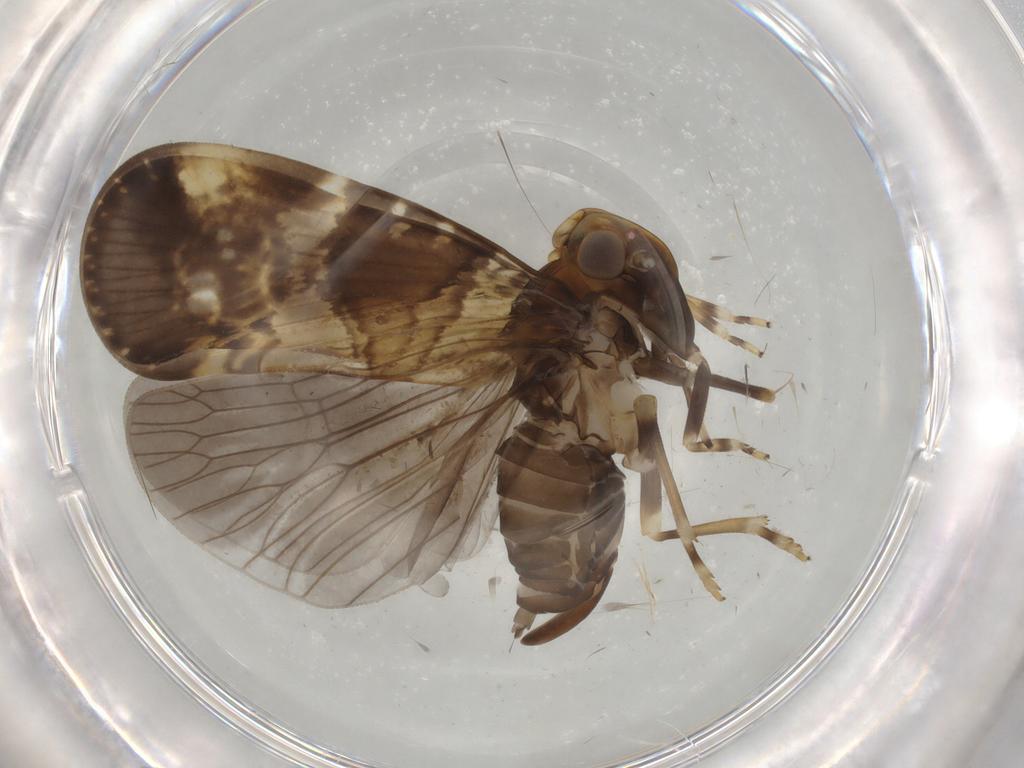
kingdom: Animalia
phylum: Arthropoda
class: Insecta
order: Hemiptera
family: Cixiidae
